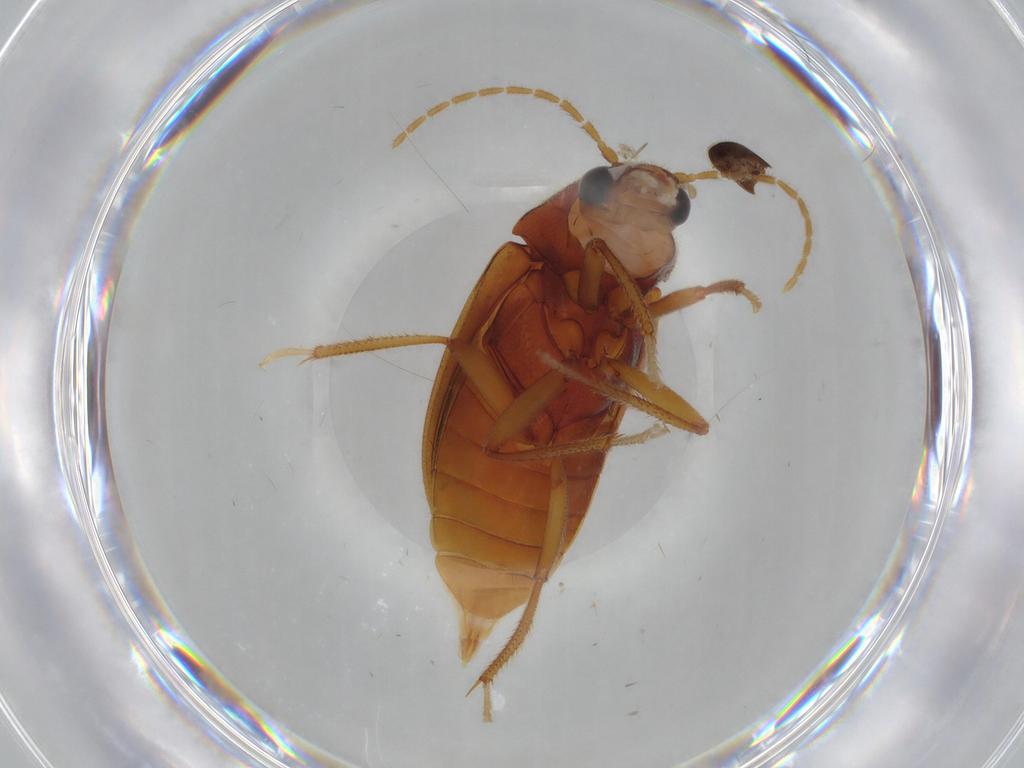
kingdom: Animalia
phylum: Arthropoda
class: Insecta
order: Coleoptera
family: Ptilodactylidae
